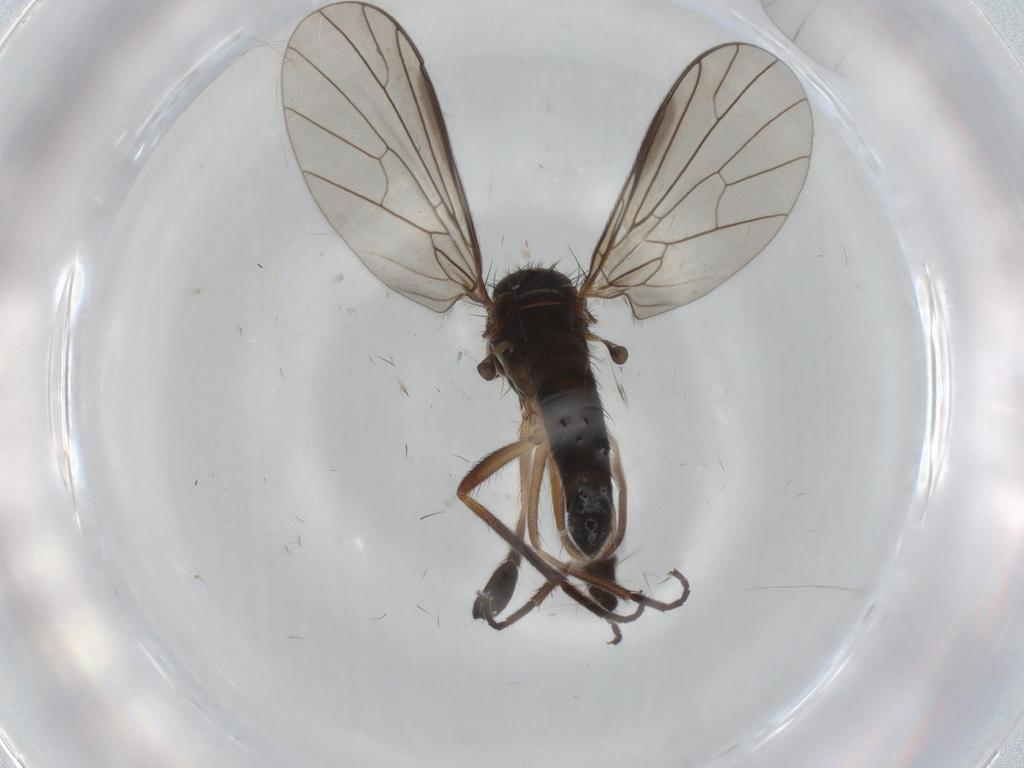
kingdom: Animalia
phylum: Arthropoda
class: Insecta
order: Diptera
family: Empididae
